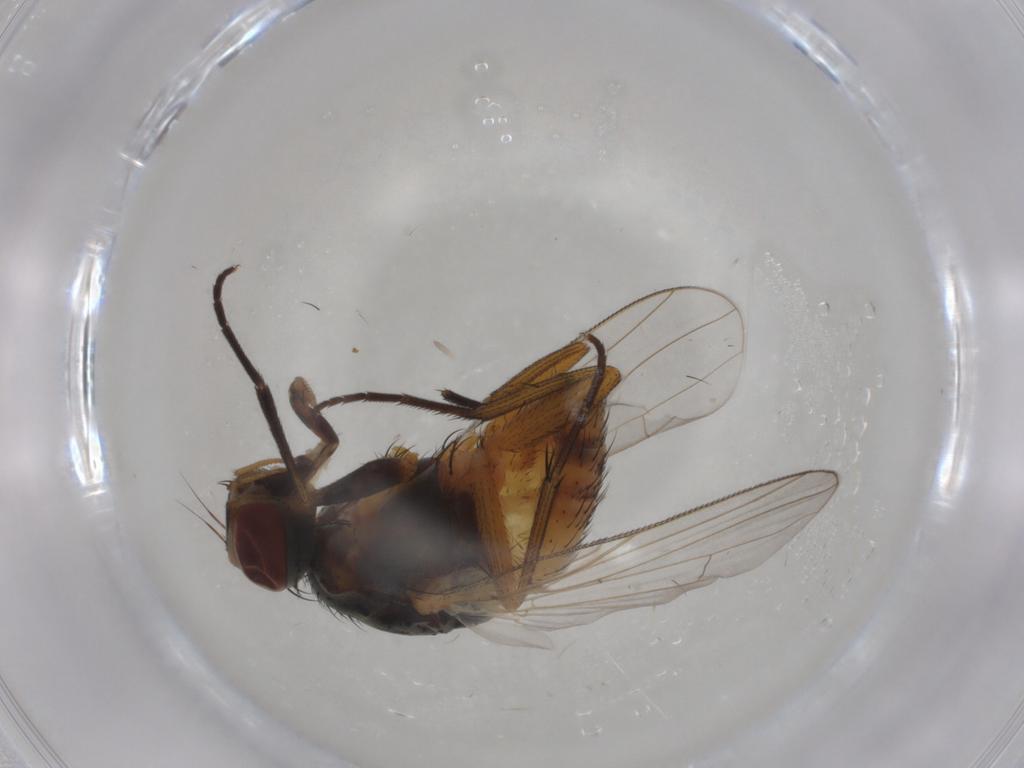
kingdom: Animalia
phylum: Arthropoda
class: Insecta
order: Diptera
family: Muscidae
